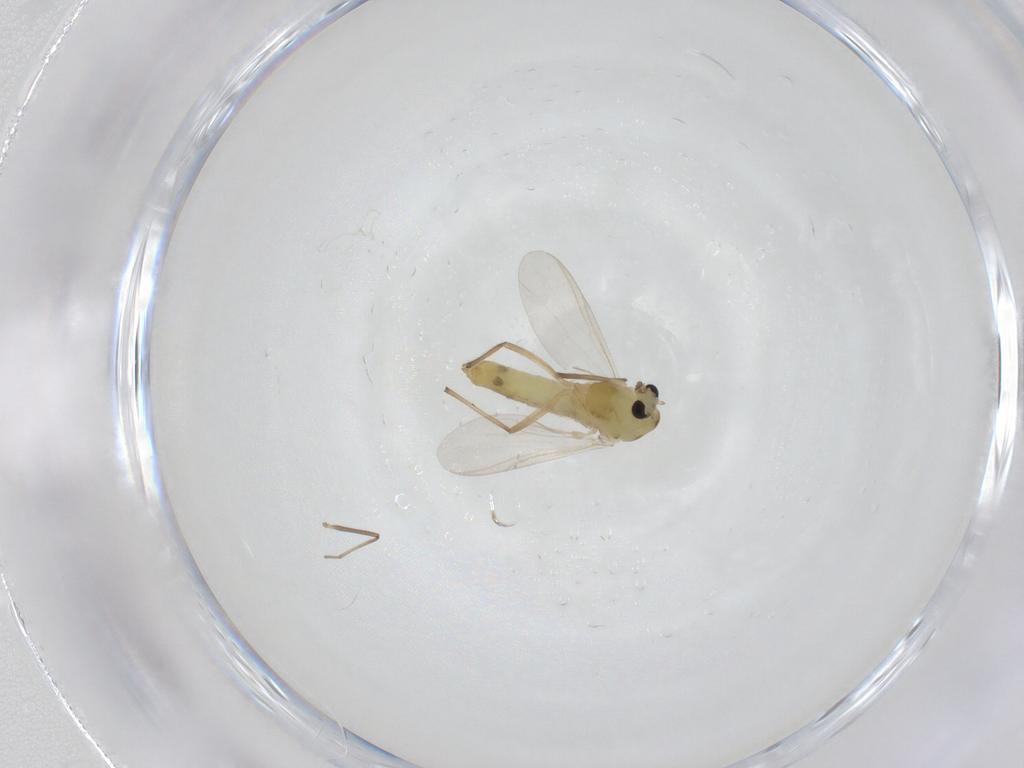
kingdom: Animalia
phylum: Arthropoda
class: Insecta
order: Diptera
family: Chironomidae
